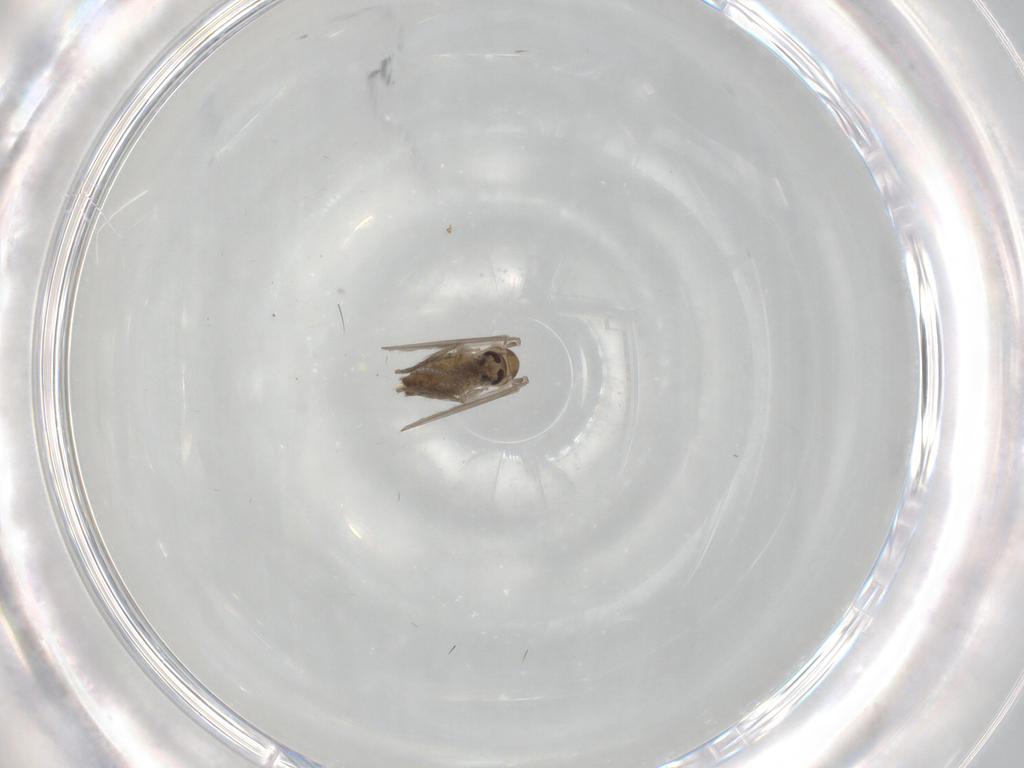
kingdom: Animalia
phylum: Arthropoda
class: Insecta
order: Diptera
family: Psychodidae
